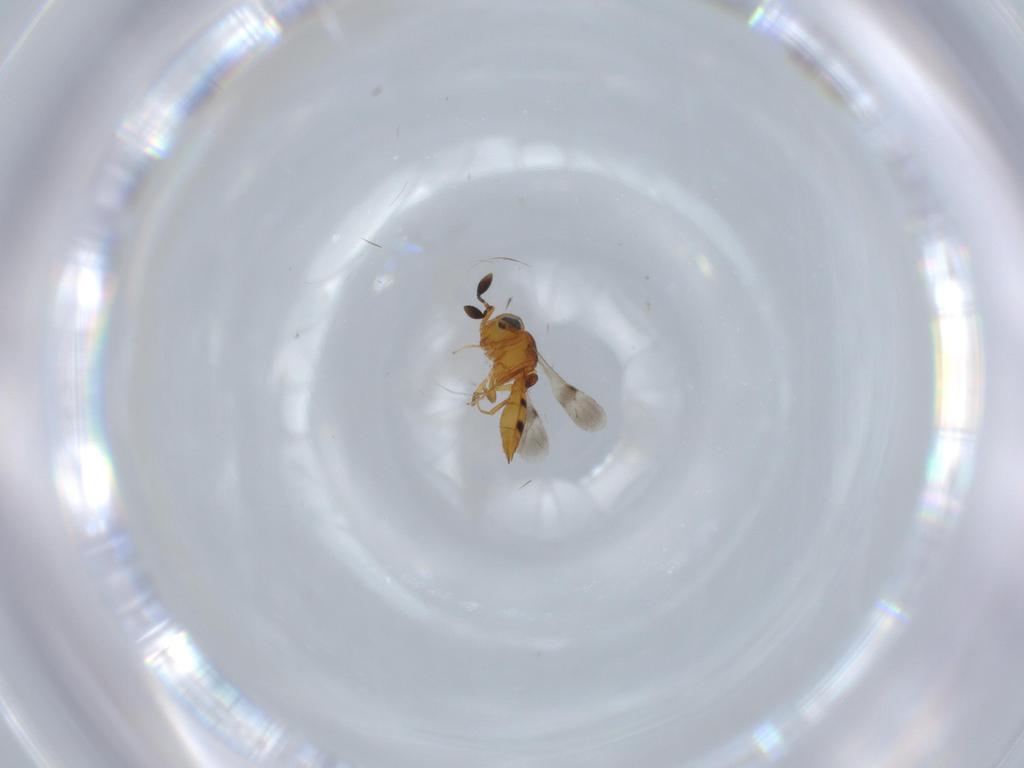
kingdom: Animalia
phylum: Arthropoda
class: Insecta
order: Hymenoptera
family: Scelionidae
